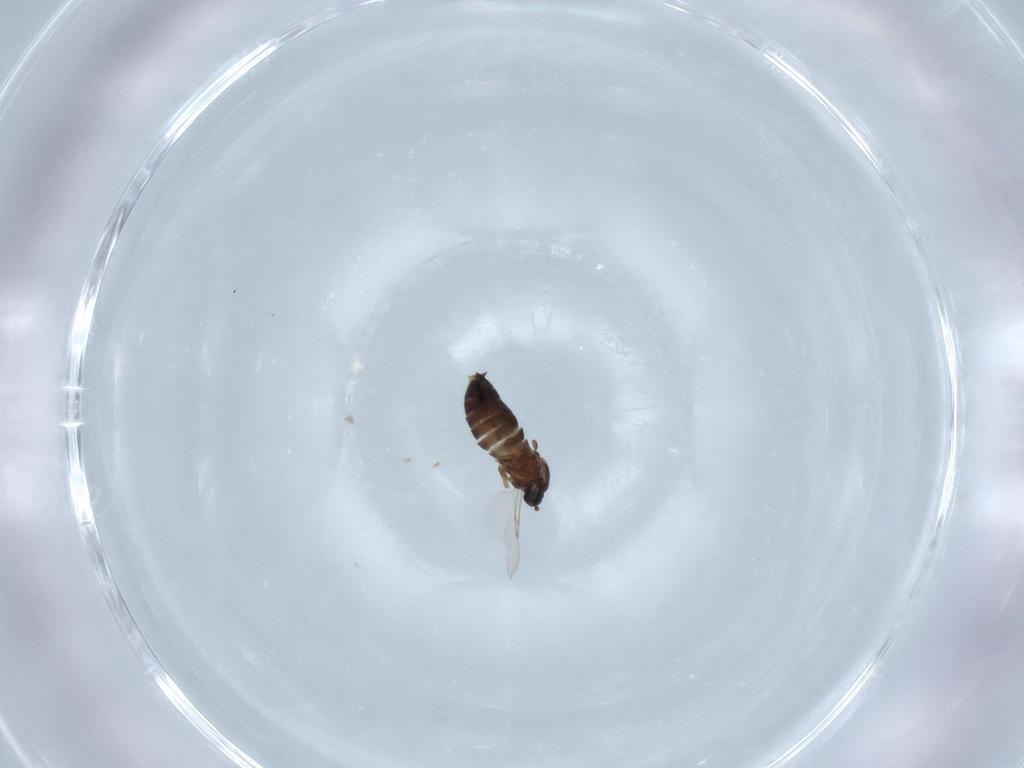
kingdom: Animalia
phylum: Arthropoda
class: Insecta
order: Diptera
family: Scatopsidae
